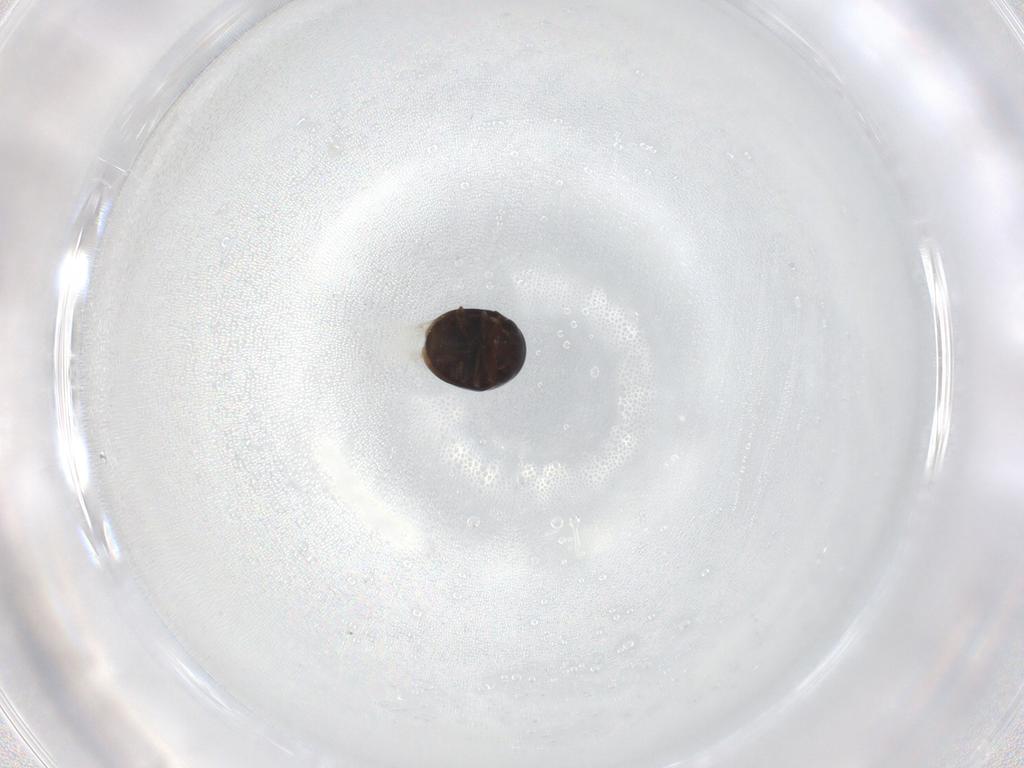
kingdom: Animalia
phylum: Arthropoda
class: Insecta
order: Coleoptera
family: Cybocephalidae
